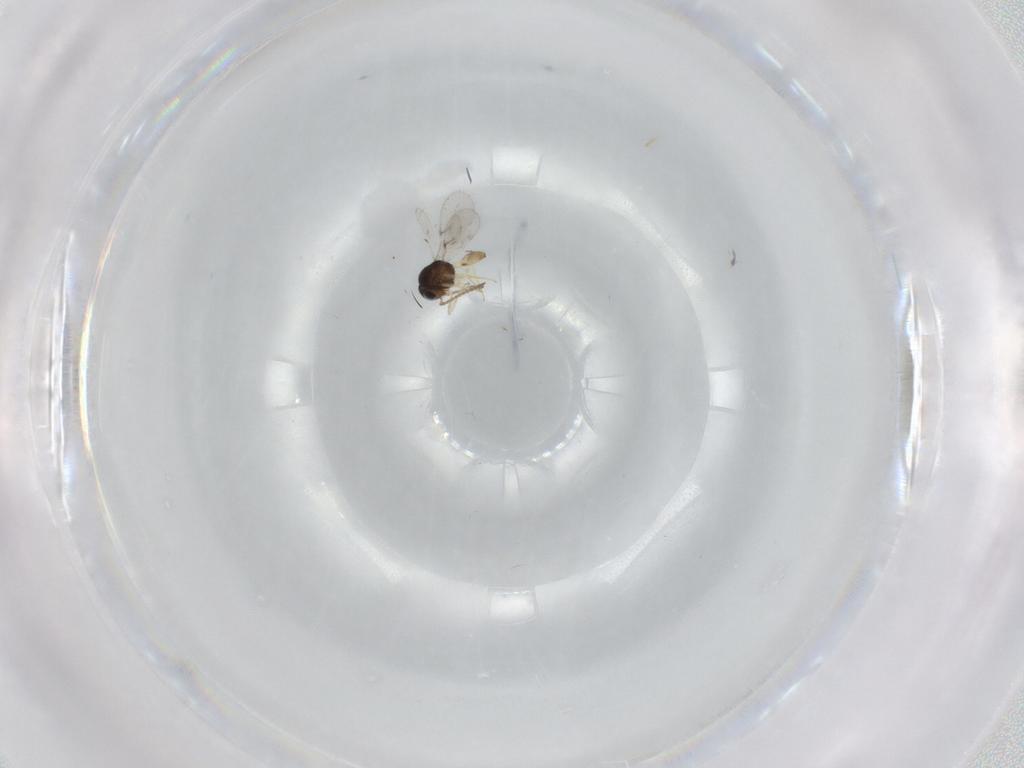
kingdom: Animalia
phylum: Arthropoda
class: Insecta
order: Hymenoptera
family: Scelionidae
